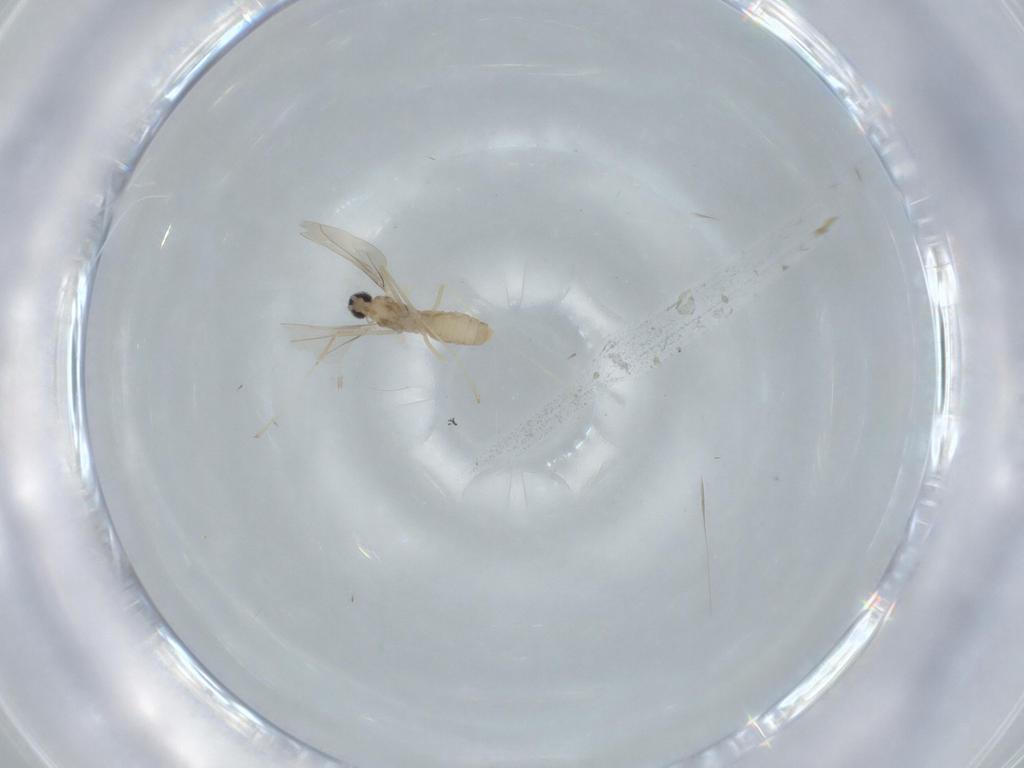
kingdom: Animalia
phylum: Arthropoda
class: Insecta
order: Diptera
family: Cecidomyiidae
